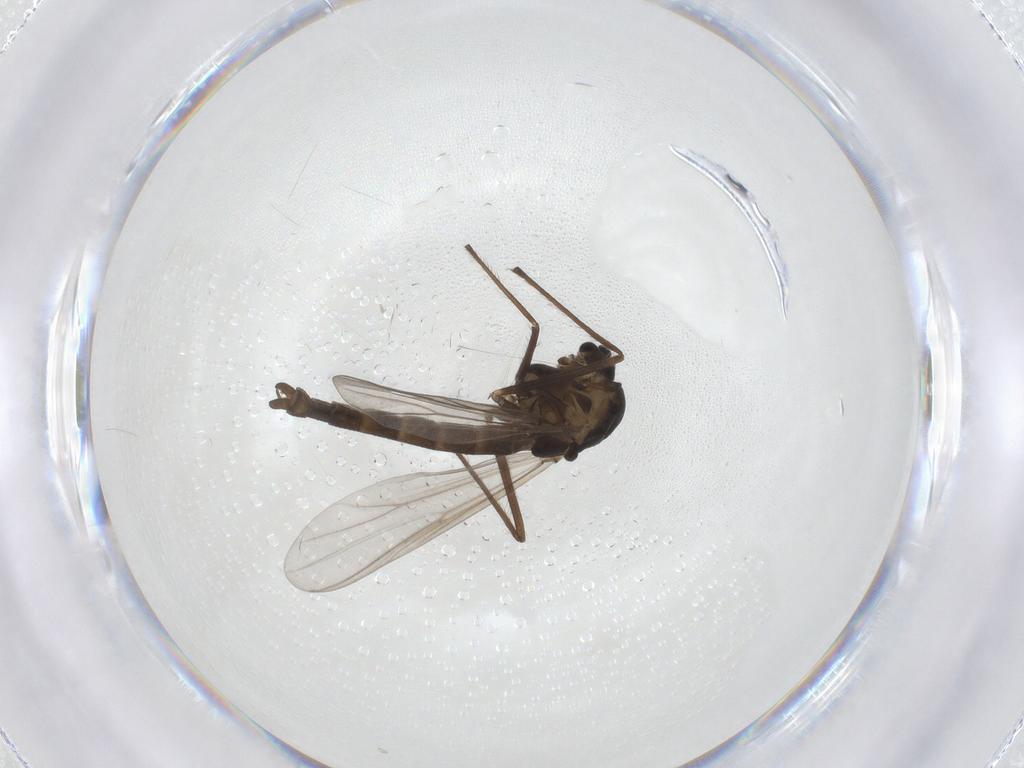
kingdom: Animalia
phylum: Arthropoda
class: Insecta
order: Diptera
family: Chironomidae
